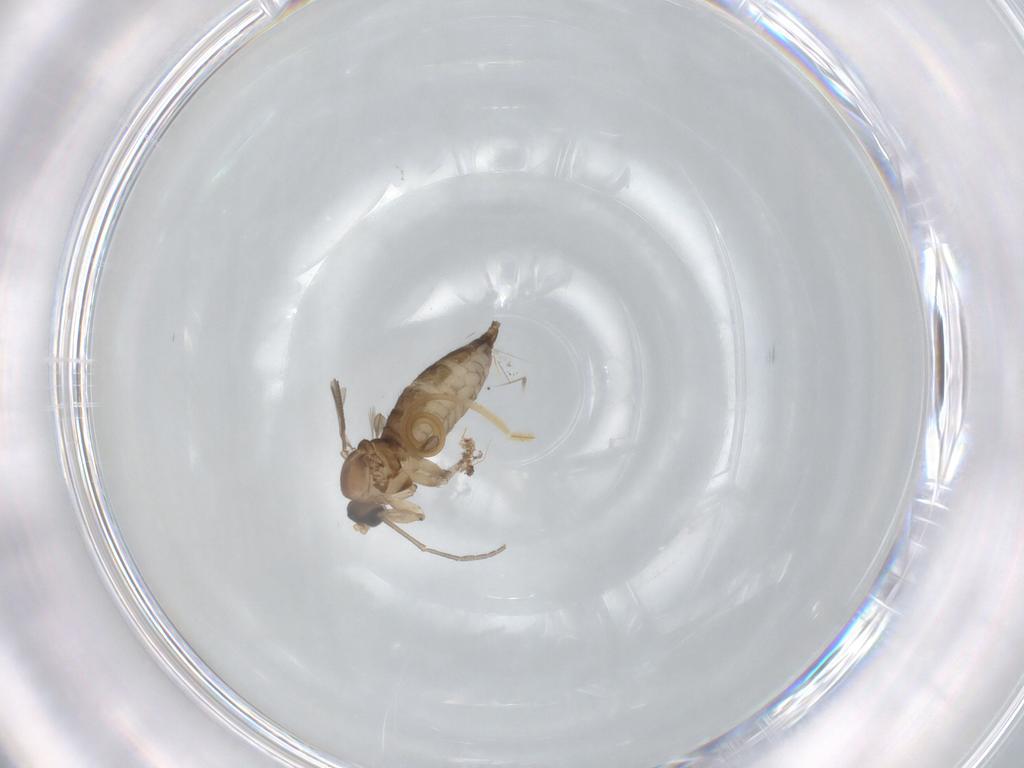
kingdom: Animalia
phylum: Arthropoda
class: Insecta
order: Diptera
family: Sciaridae
